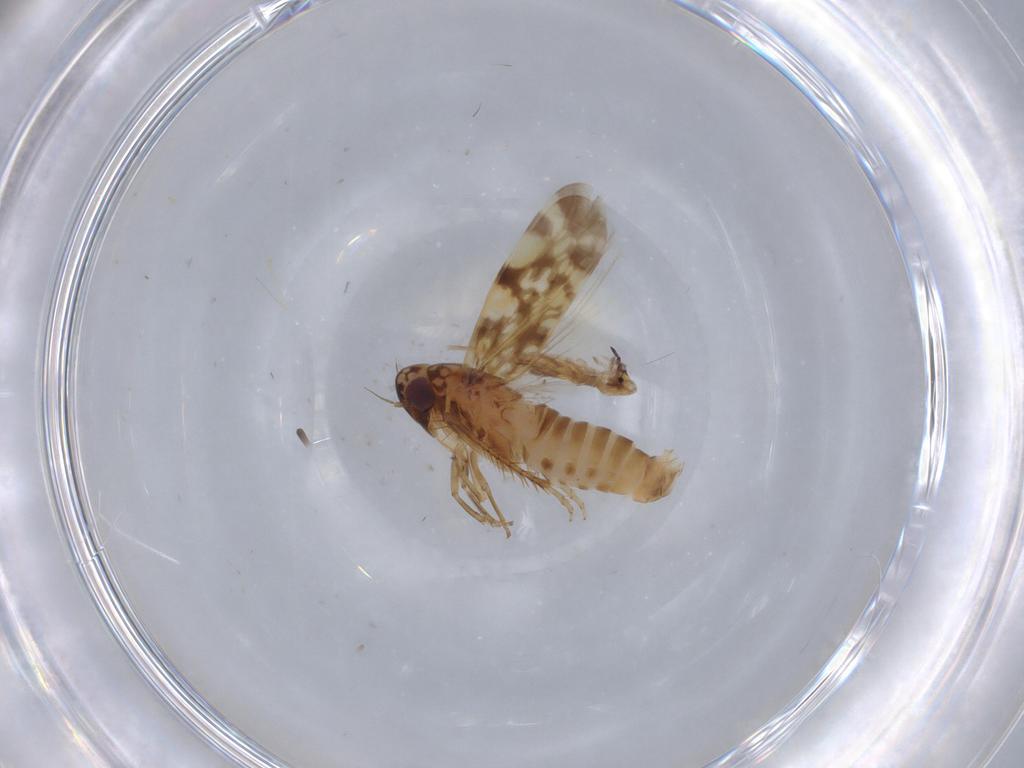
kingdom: Animalia
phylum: Arthropoda
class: Insecta
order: Hemiptera
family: Cicadellidae
